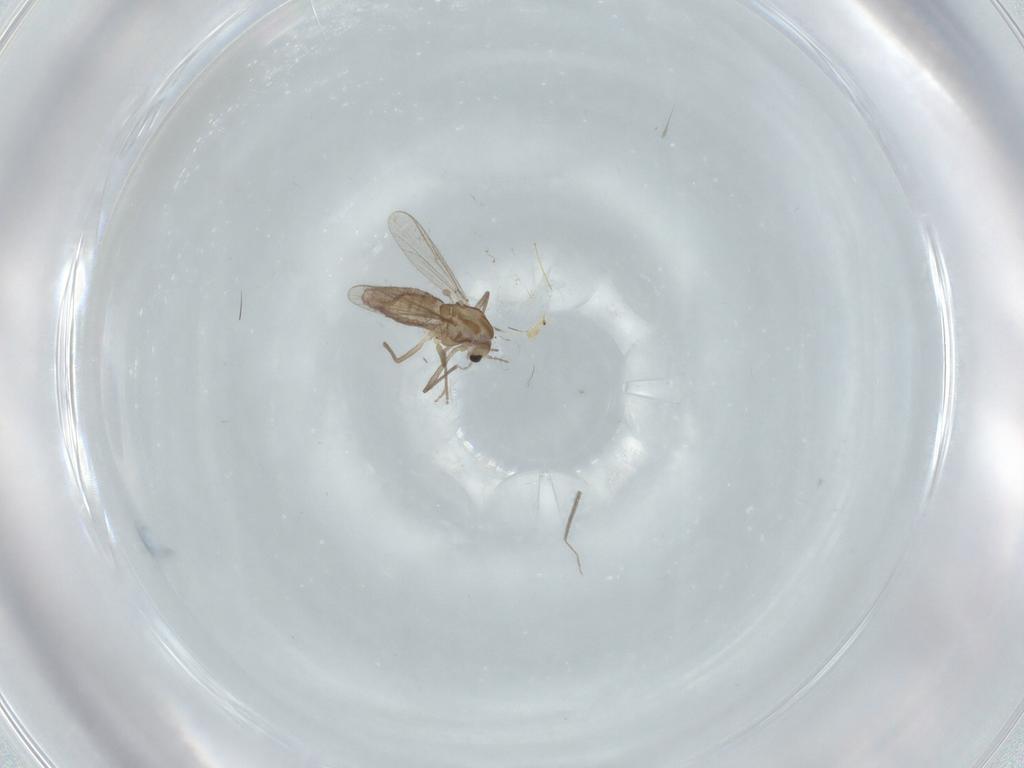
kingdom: Animalia
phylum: Arthropoda
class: Insecta
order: Diptera
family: Chironomidae
